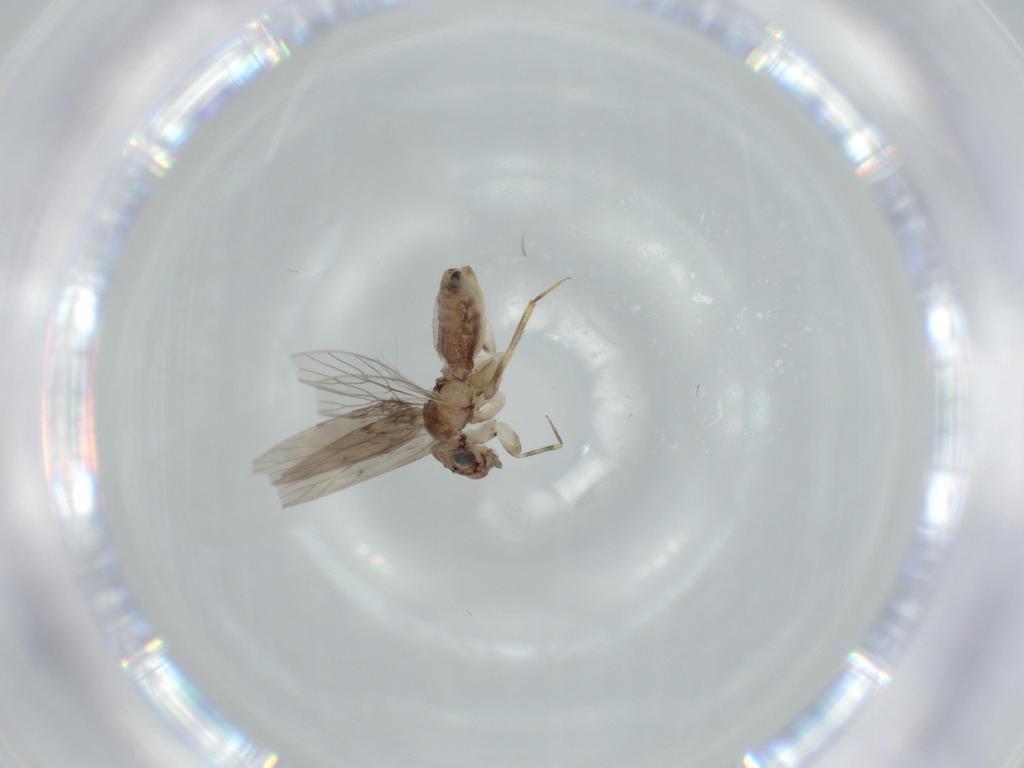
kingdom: Animalia
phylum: Arthropoda
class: Insecta
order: Psocodea
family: Lepidopsocidae
